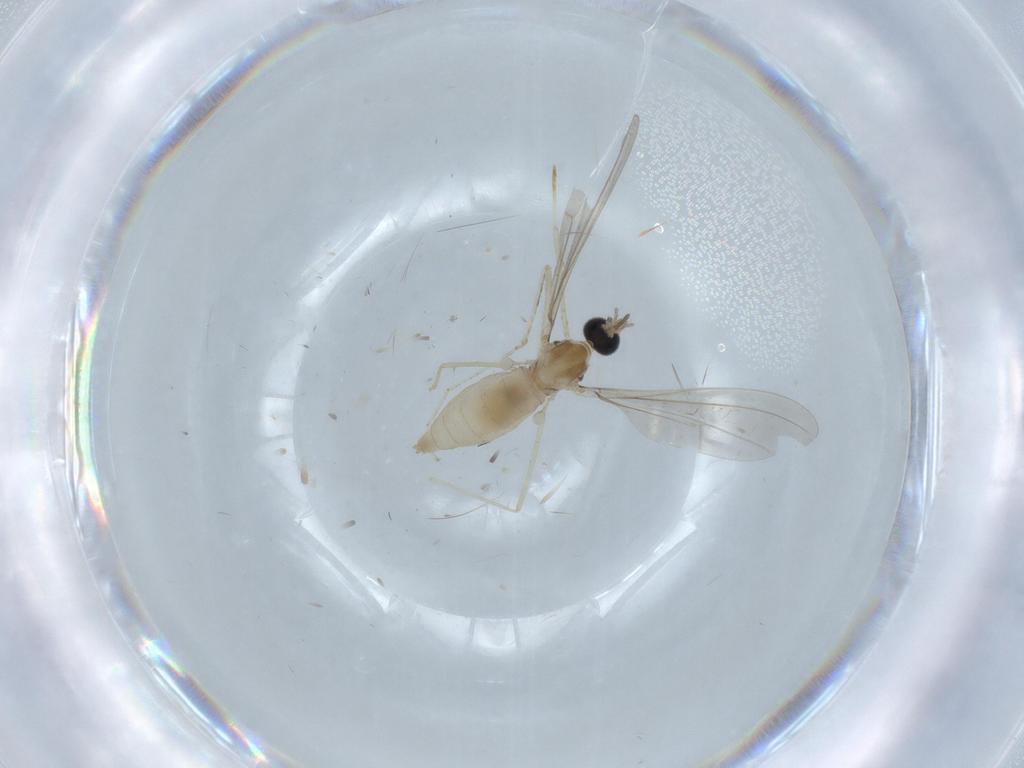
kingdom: Animalia
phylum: Arthropoda
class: Insecta
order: Diptera
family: Dolichopodidae
